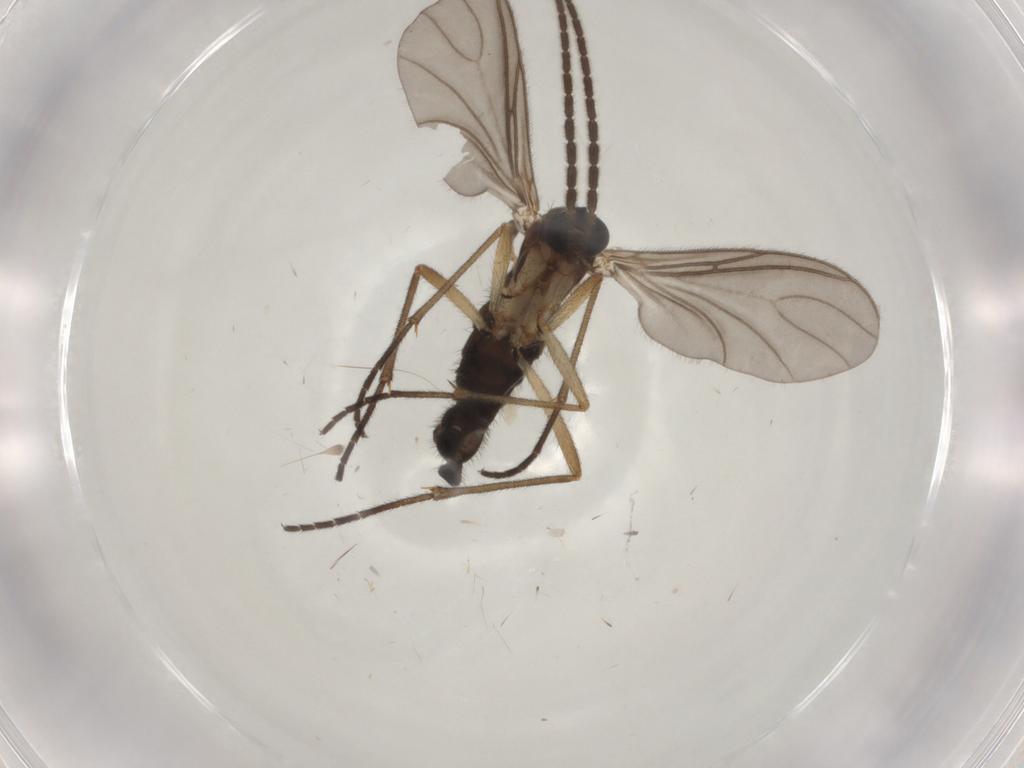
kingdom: Animalia
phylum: Arthropoda
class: Insecta
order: Diptera
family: Sciaridae
